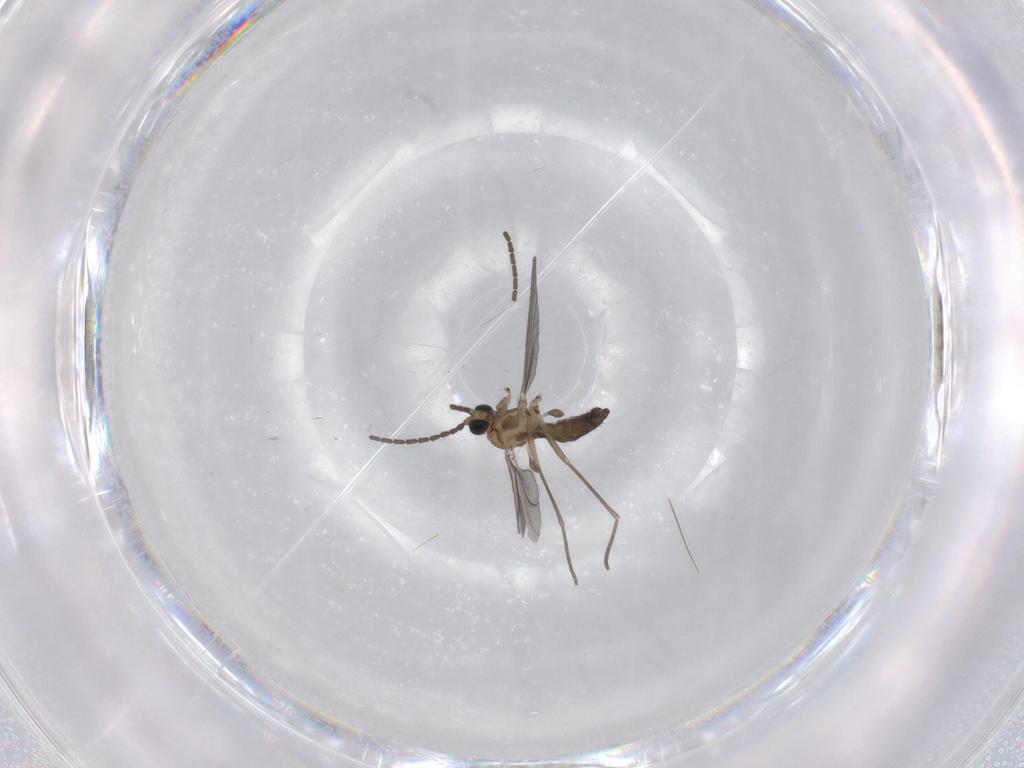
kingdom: Animalia
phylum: Arthropoda
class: Insecta
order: Diptera
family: Sciaridae
